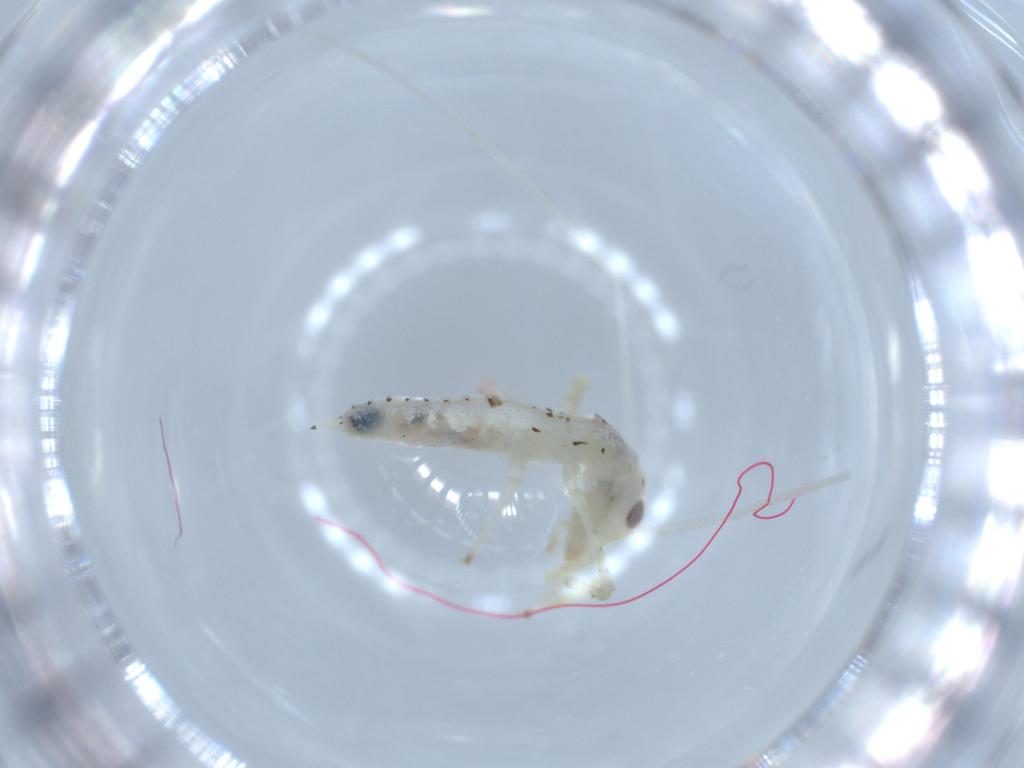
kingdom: Animalia
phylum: Arthropoda
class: Insecta
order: Orthoptera
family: Oecanthidae
